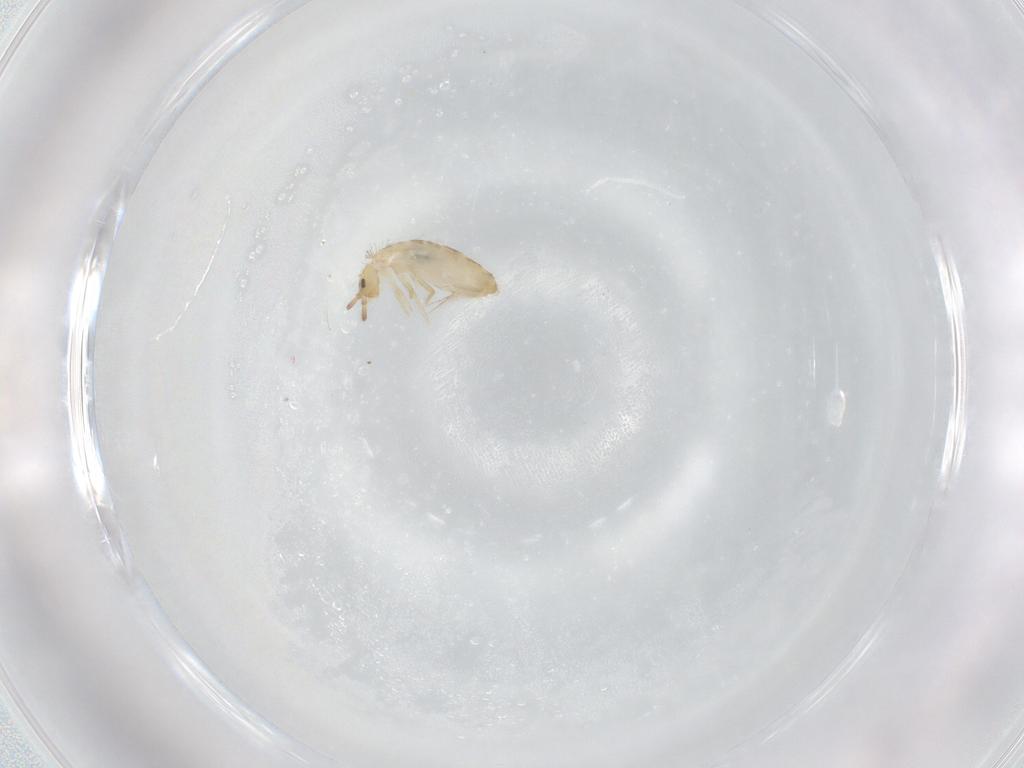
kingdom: Animalia
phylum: Arthropoda
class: Collembola
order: Entomobryomorpha
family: Entomobryidae
